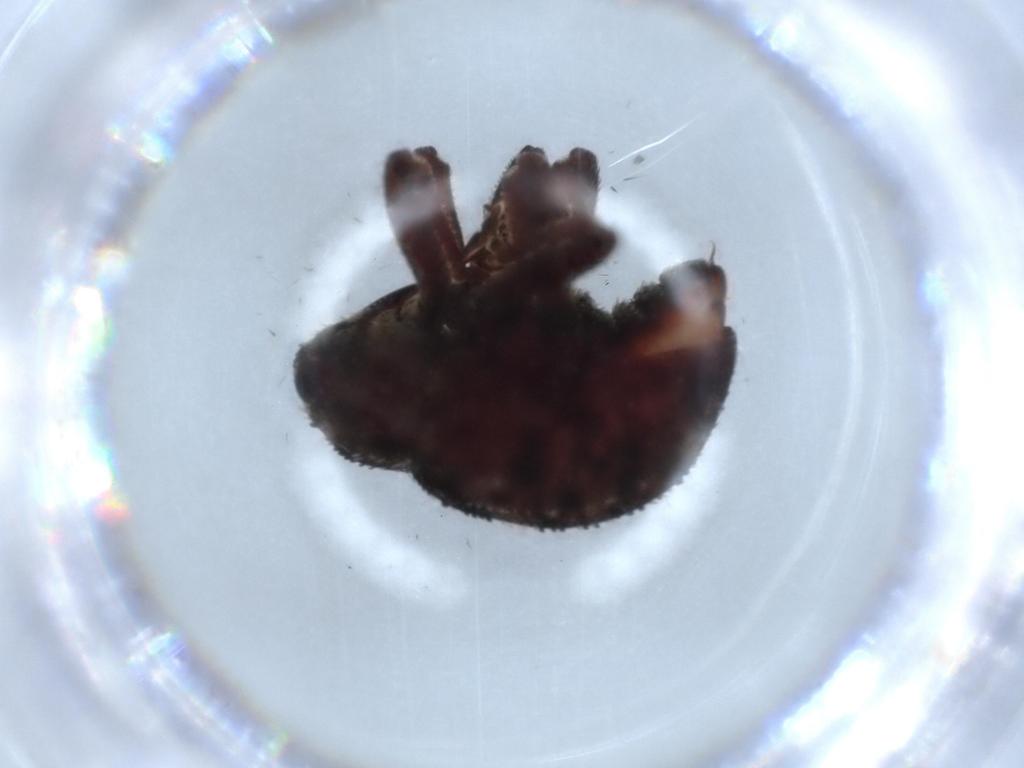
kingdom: Animalia
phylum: Arthropoda
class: Insecta
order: Coleoptera
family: Curculionidae
